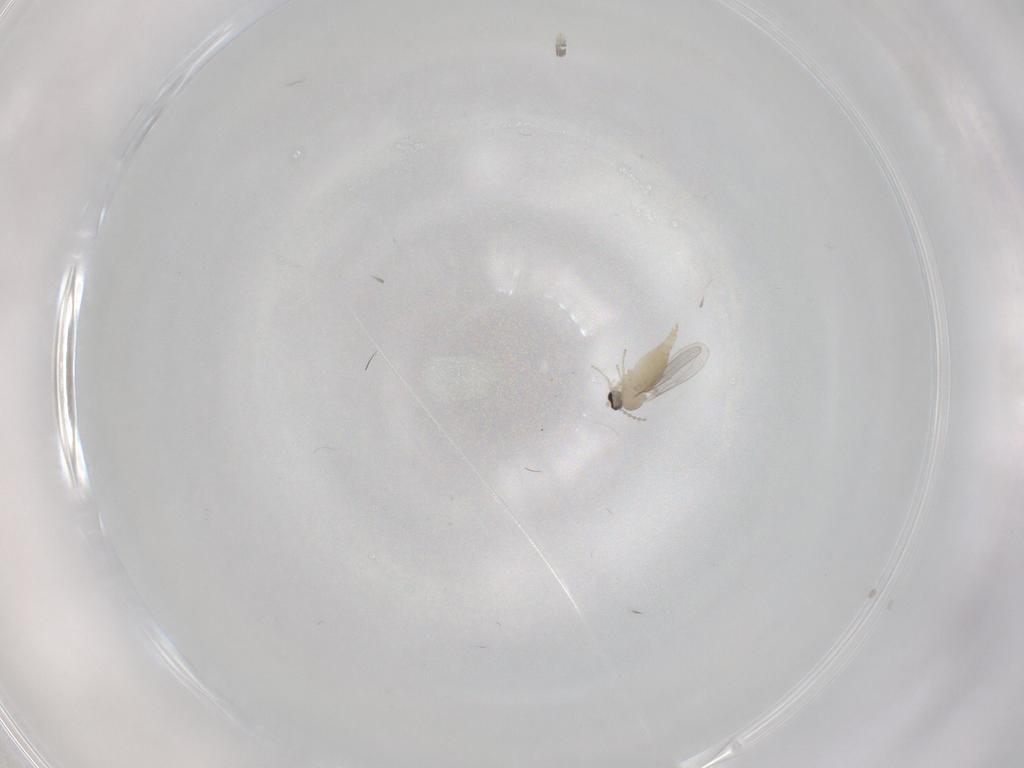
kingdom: Animalia
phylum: Arthropoda
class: Insecta
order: Diptera
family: Cecidomyiidae
